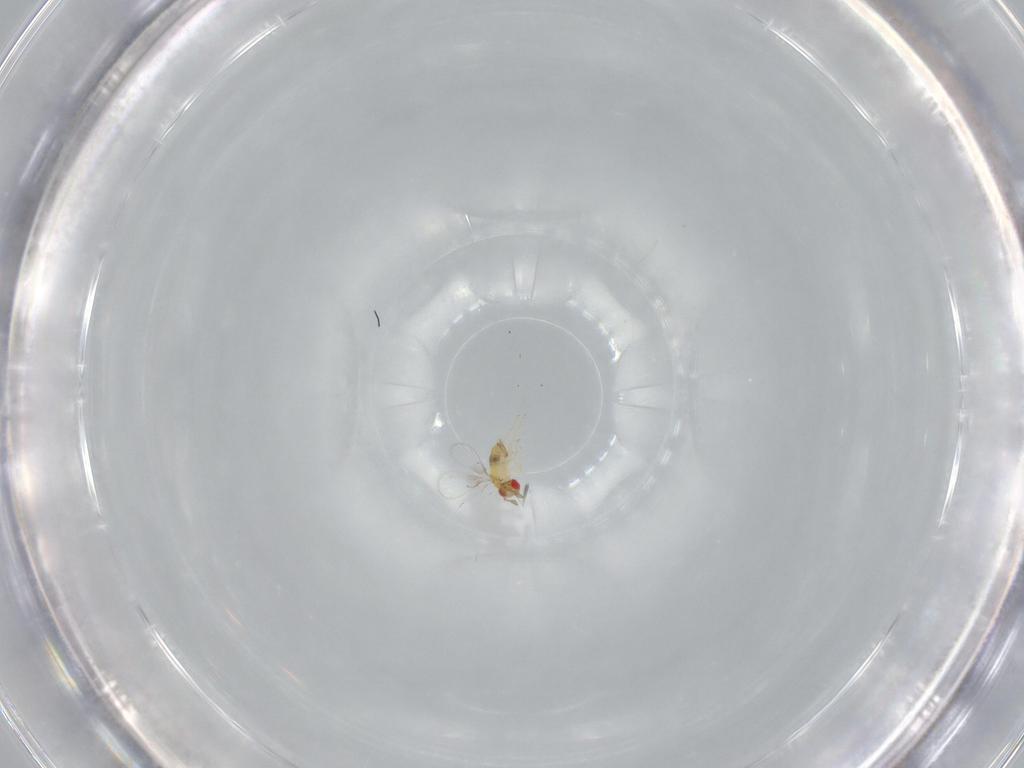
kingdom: Animalia
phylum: Arthropoda
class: Insecta
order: Hymenoptera
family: Trichogrammatidae
